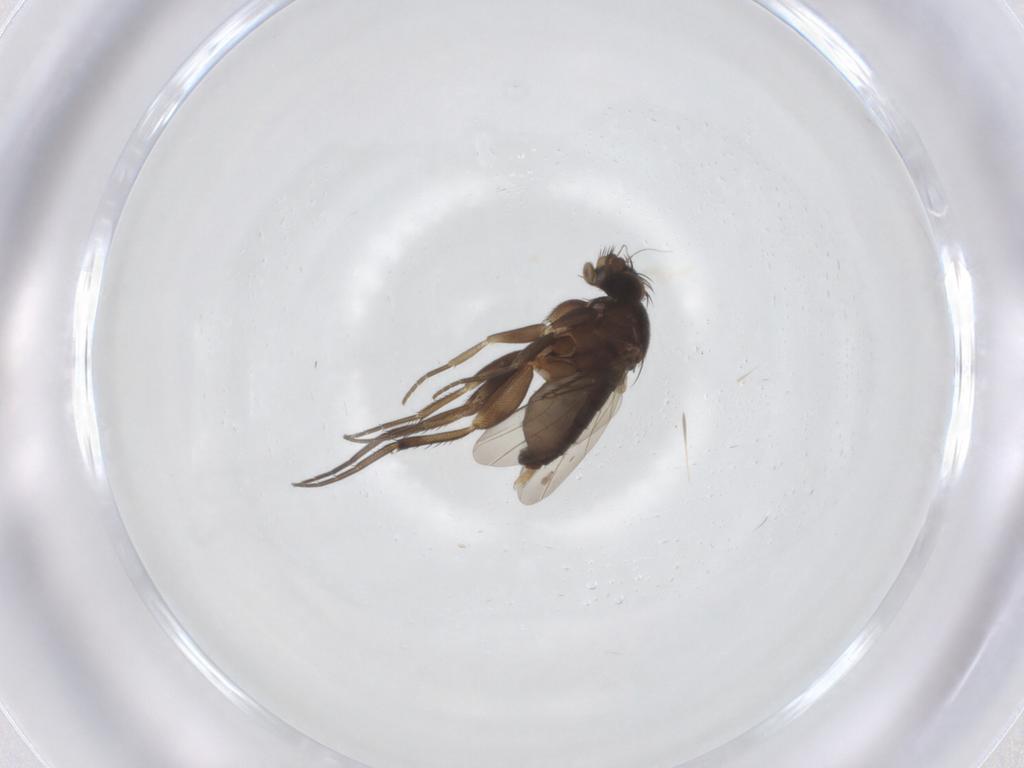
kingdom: Animalia
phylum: Arthropoda
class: Insecta
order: Diptera
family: Phoridae
